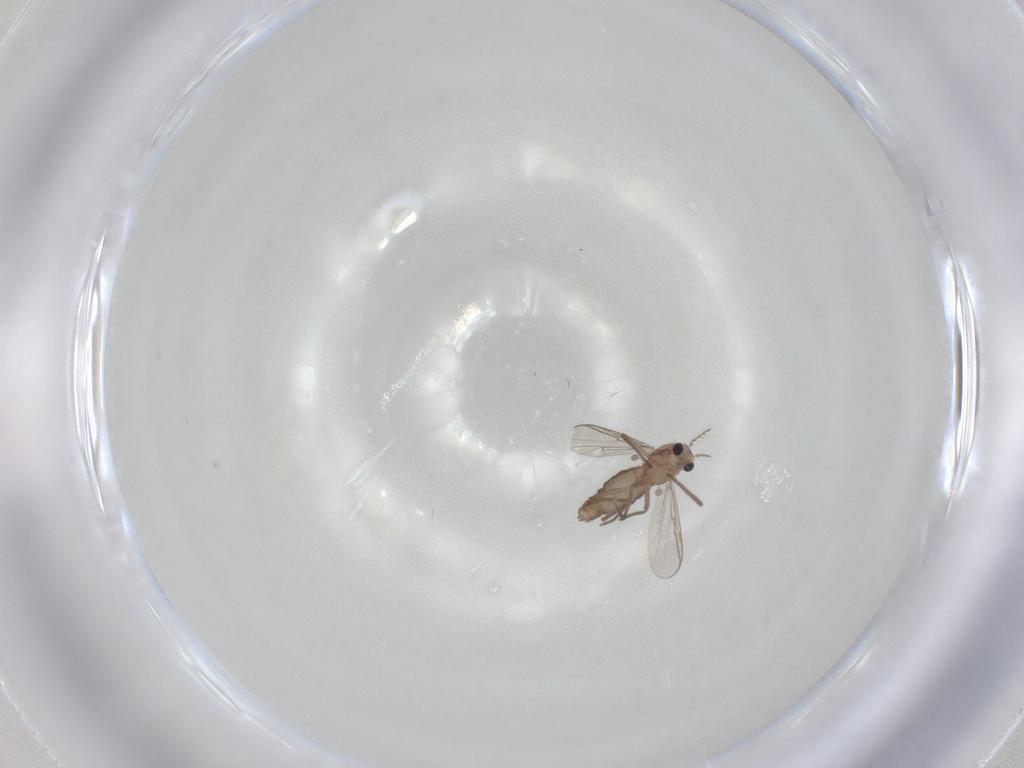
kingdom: Animalia
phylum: Arthropoda
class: Insecta
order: Diptera
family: Chironomidae
